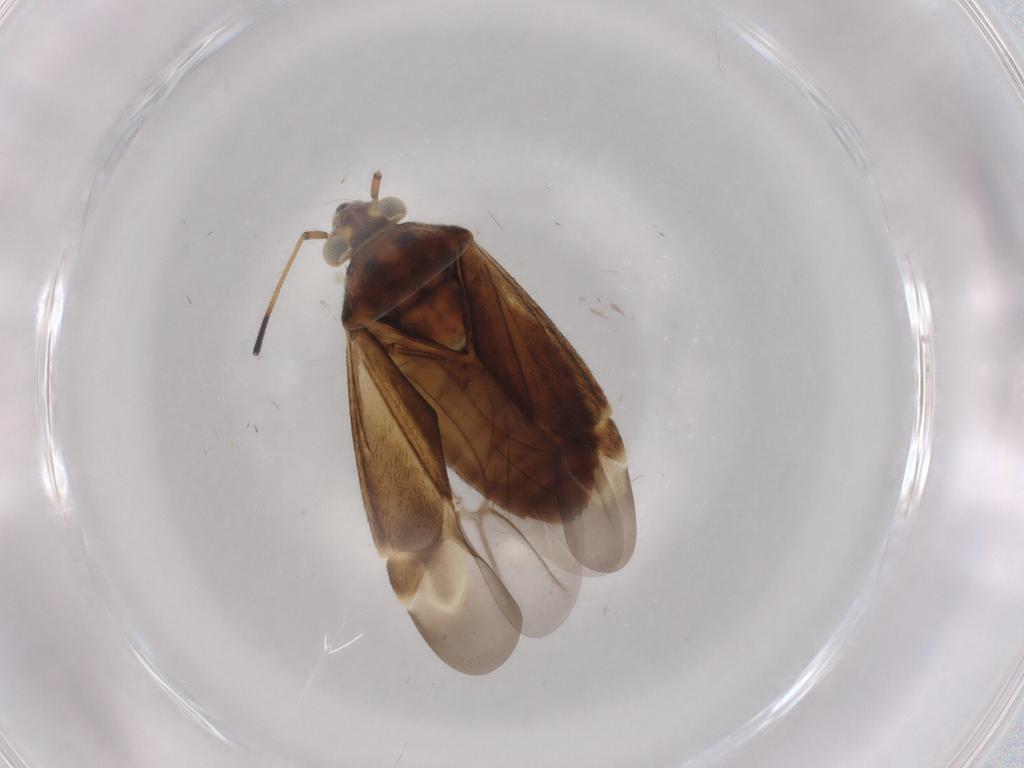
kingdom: Animalia
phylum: Arthropoda
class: Insecta
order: Hemiptera
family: Miridae
